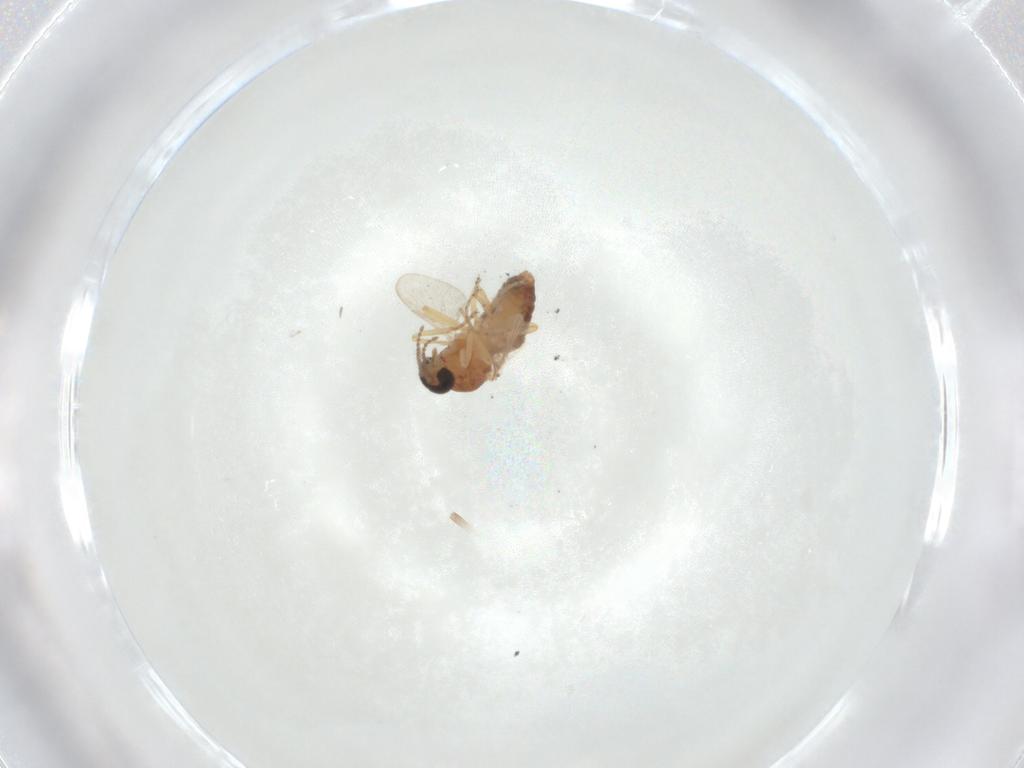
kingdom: Animalia
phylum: Arthropoda
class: Insecta
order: Diptera
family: Ceratopogonidae
